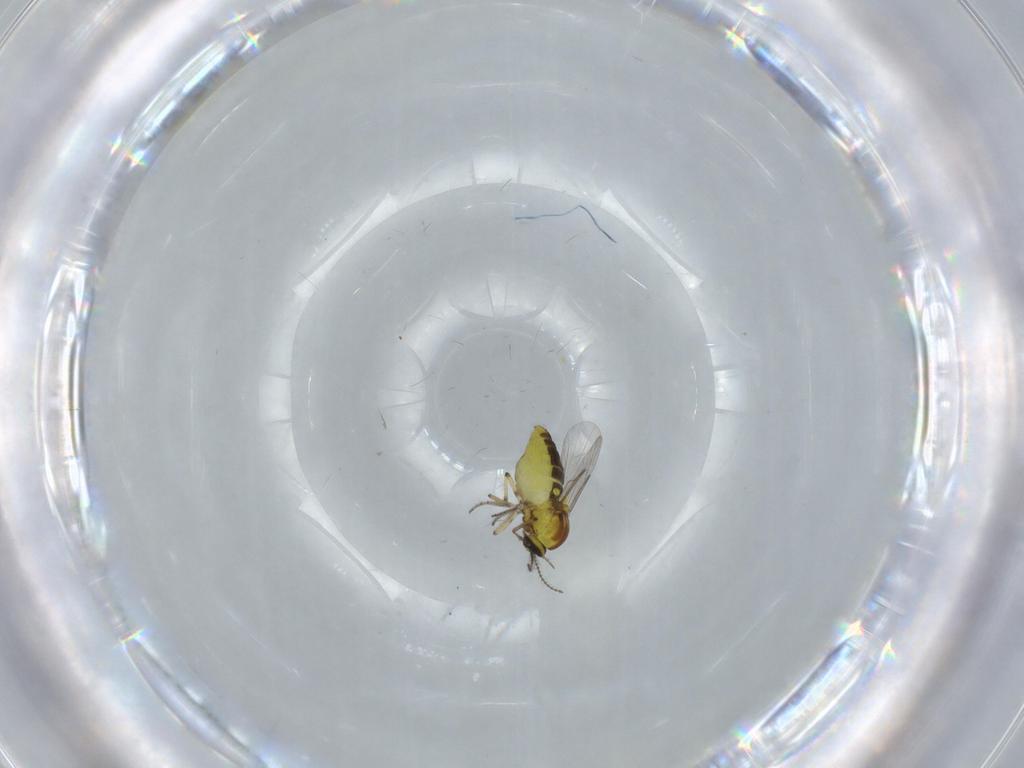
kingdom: Animalia
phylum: Arthropoda
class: Insecta
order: Diptera
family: Ceratopogonidae
